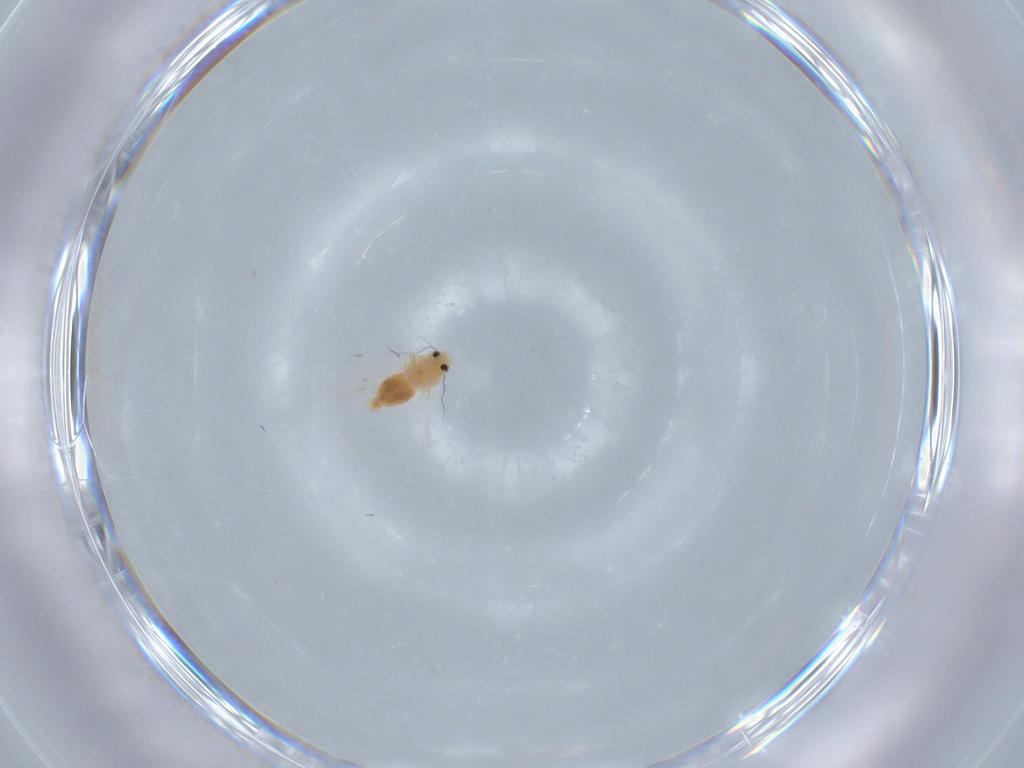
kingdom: Animalia
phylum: Arthropoda
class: Insecta
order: Hemiptera
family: Aleyrodidae
